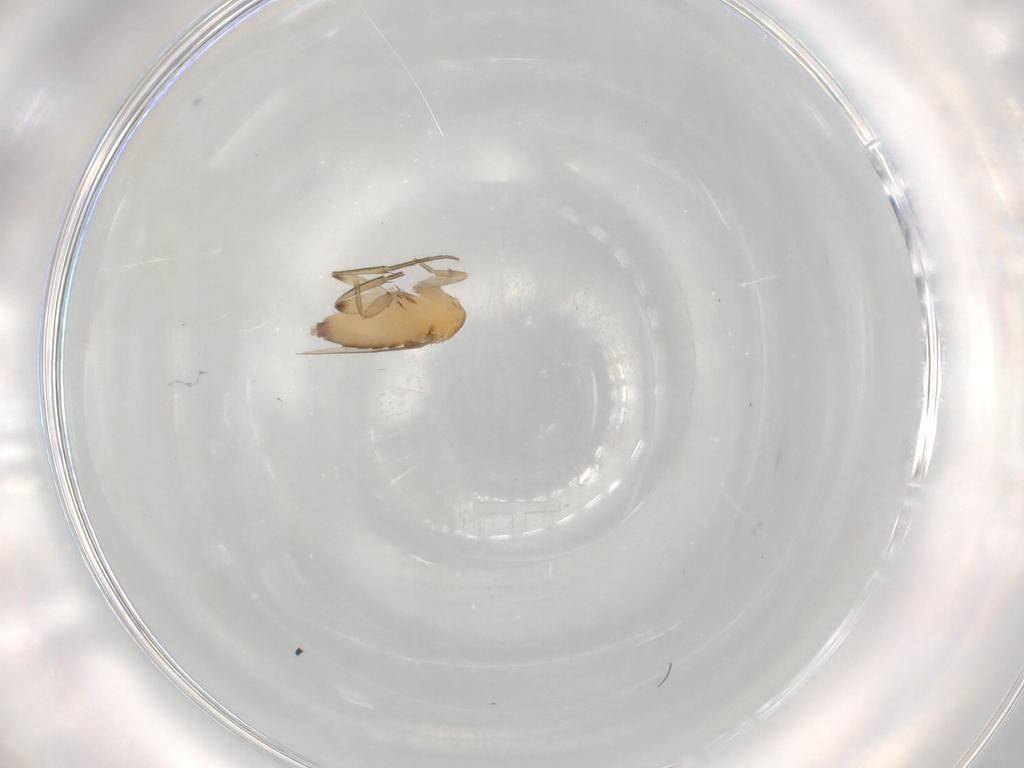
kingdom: Animalia
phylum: Arthropoda
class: Insecta
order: Diptera
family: Phoridae
